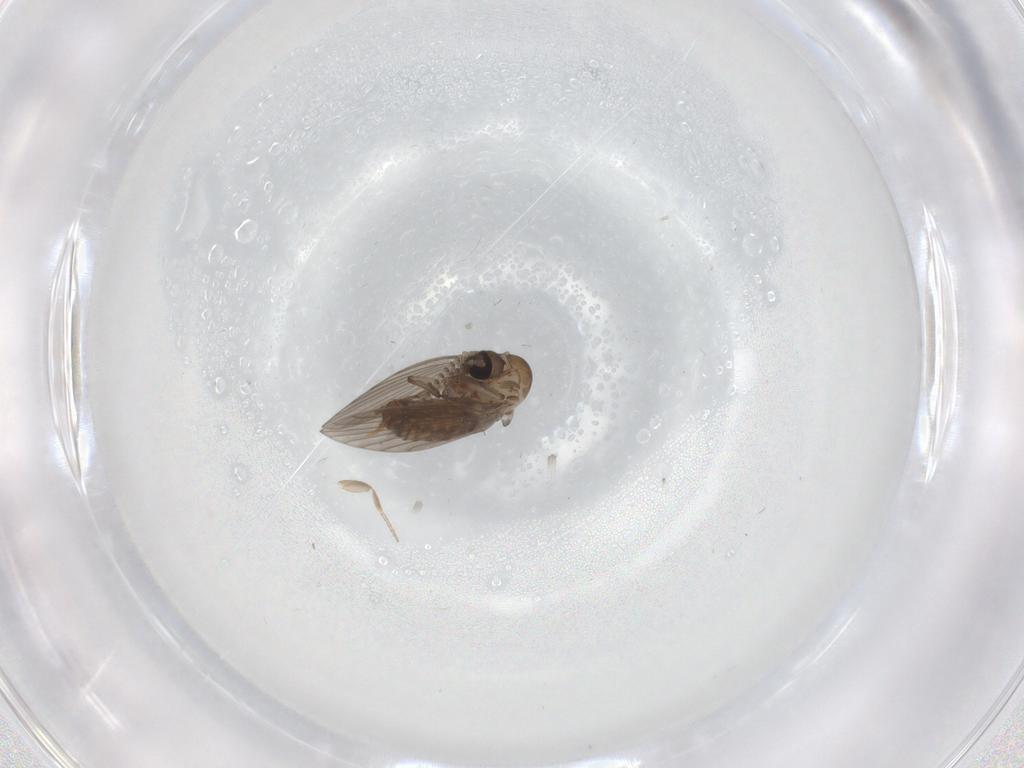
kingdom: Animalia
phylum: Arthropoda
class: Insecta
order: Diptera
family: Psychodidae
